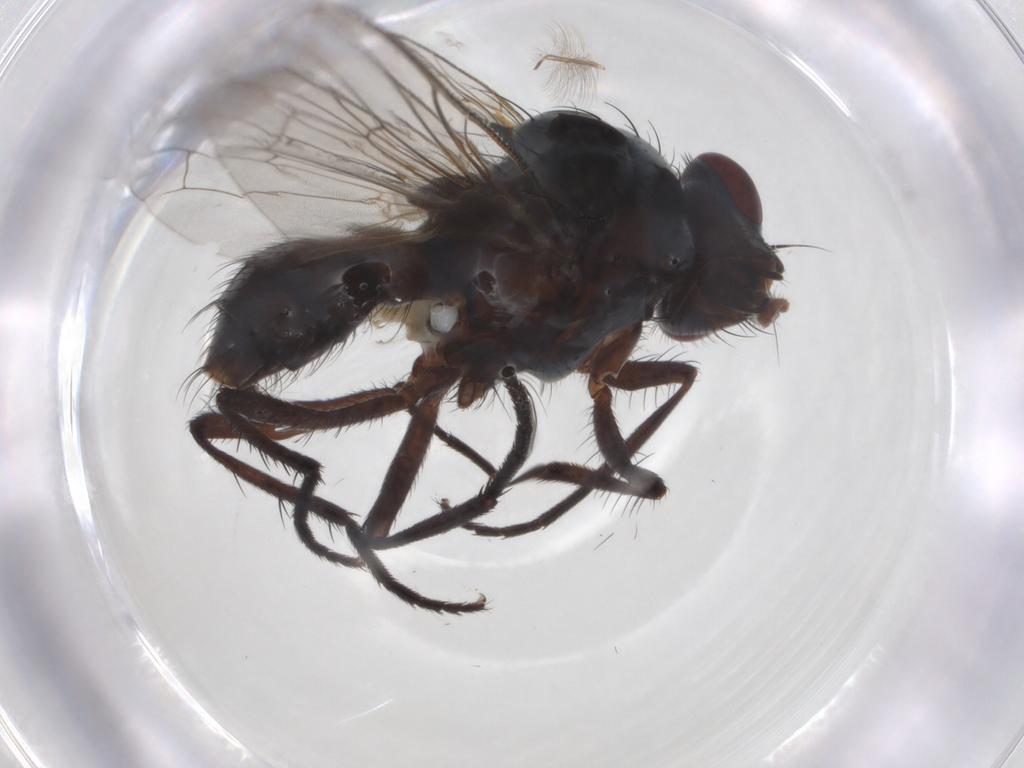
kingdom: Animalia
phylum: Arthropoda
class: Insecta
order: Diptera
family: Anthomyiidae
